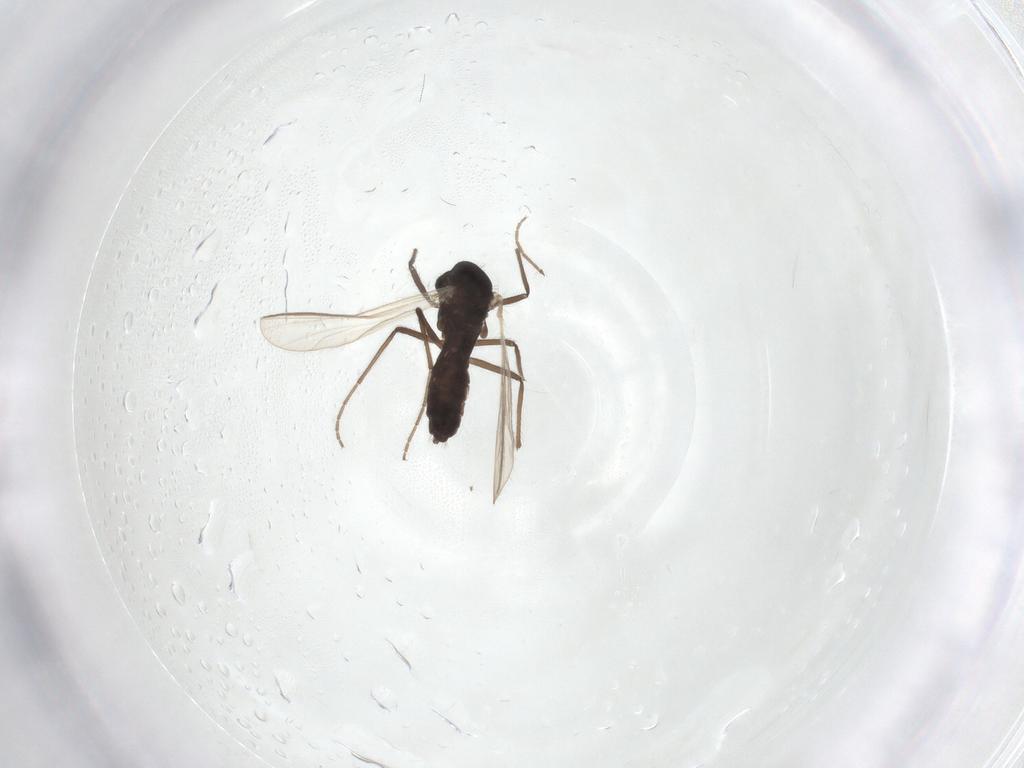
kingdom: Animalia
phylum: Arthropoda
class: Insecta
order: Diptera
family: Chironomidae
